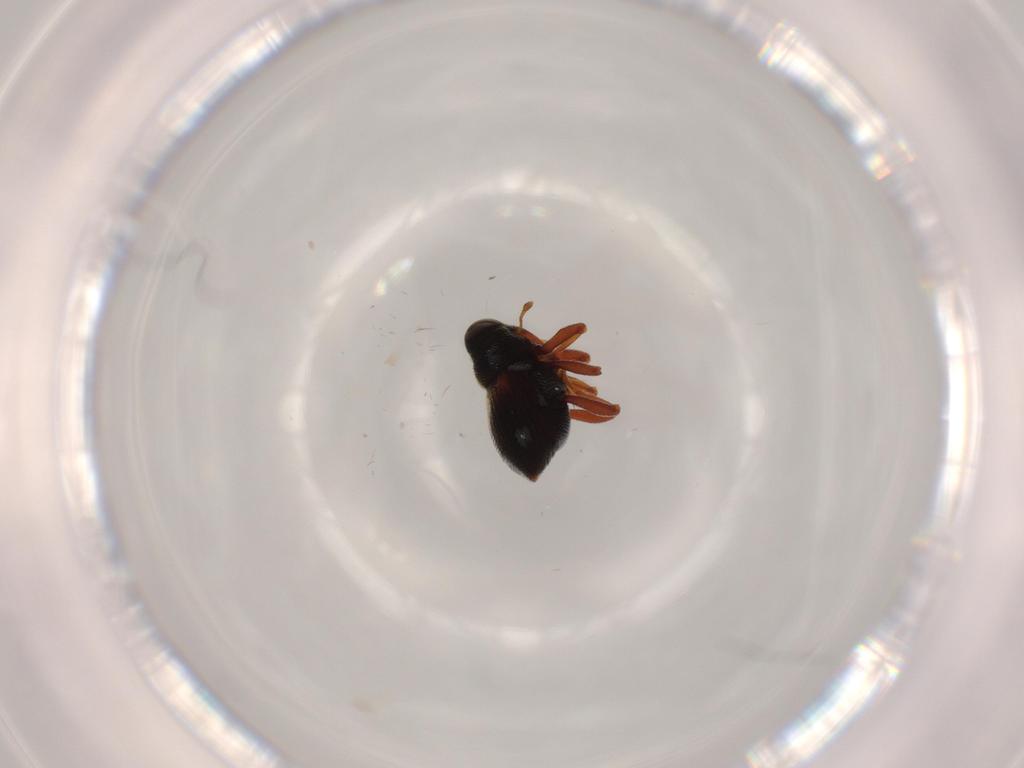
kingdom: Animalia
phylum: Arthropoda
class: Insecta
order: Coleoptera
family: Curculionidae
